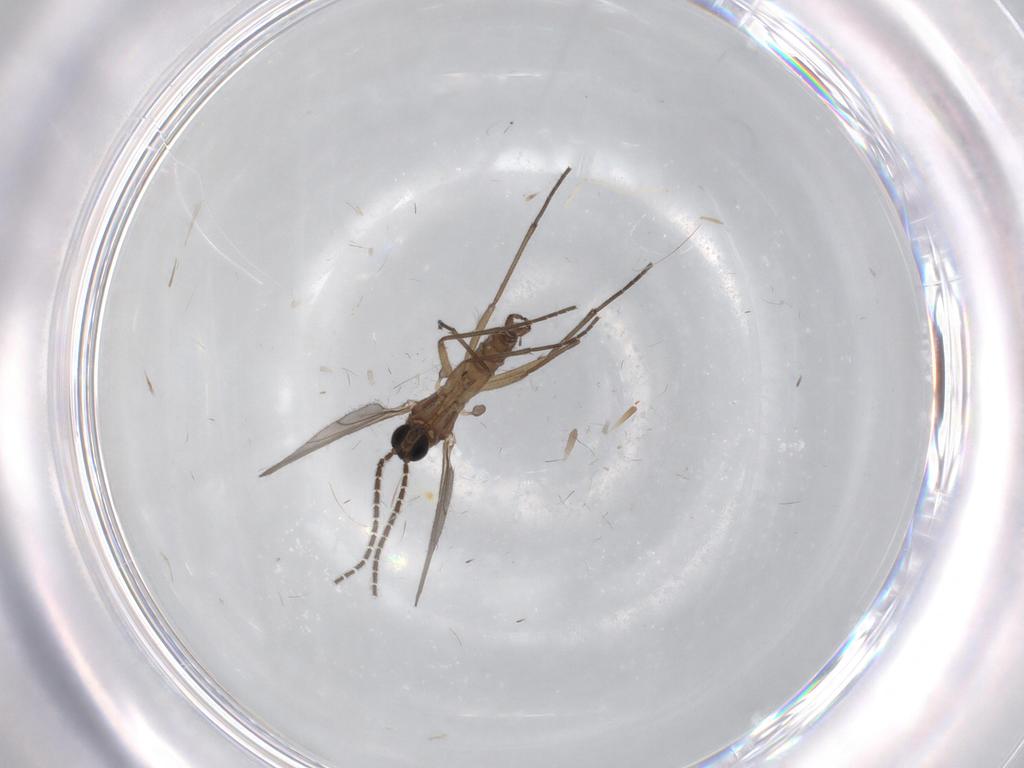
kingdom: Animalia
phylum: Arthropoda
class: Insecta
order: Diptera
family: Sciaridae
